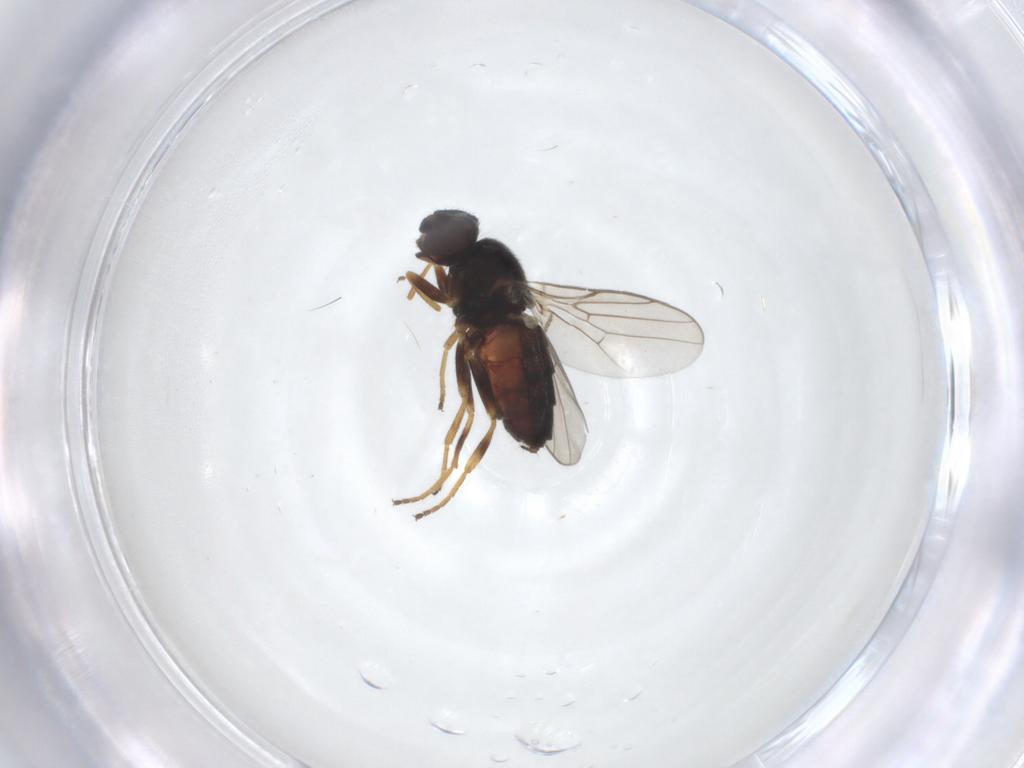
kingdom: Animalia
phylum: Arthropoda
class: Insecta
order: Diptera
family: Chloropidae
